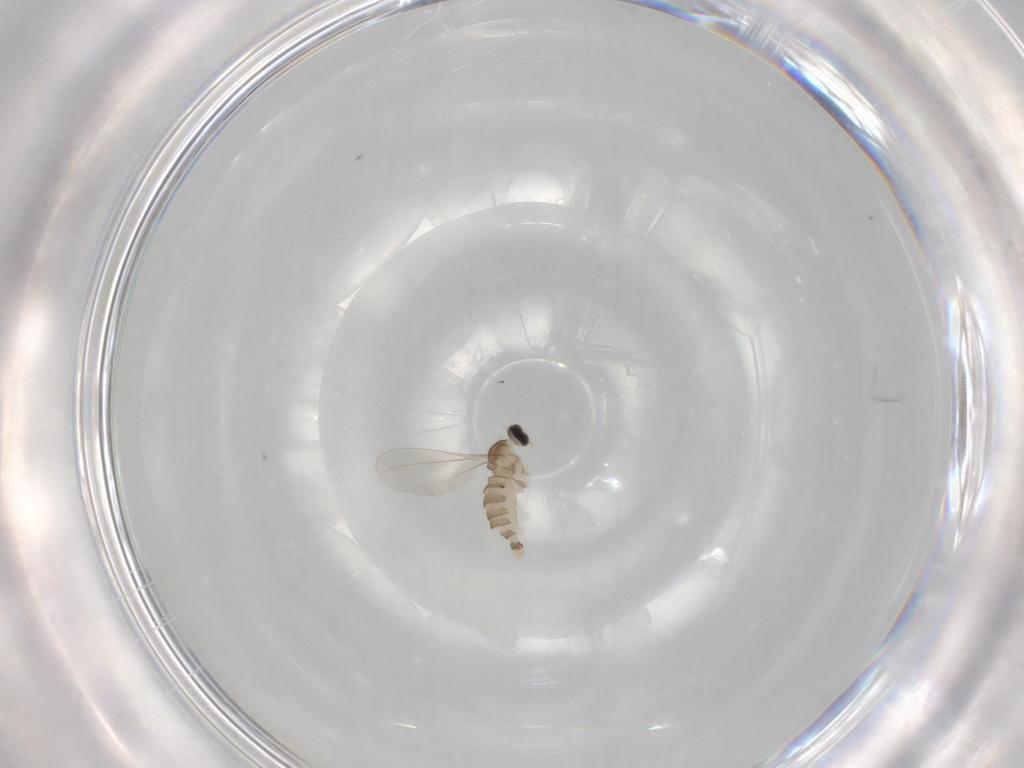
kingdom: Animalia
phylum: Arthropoda
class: Insecta
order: Diptera
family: Cecidomyiidae
